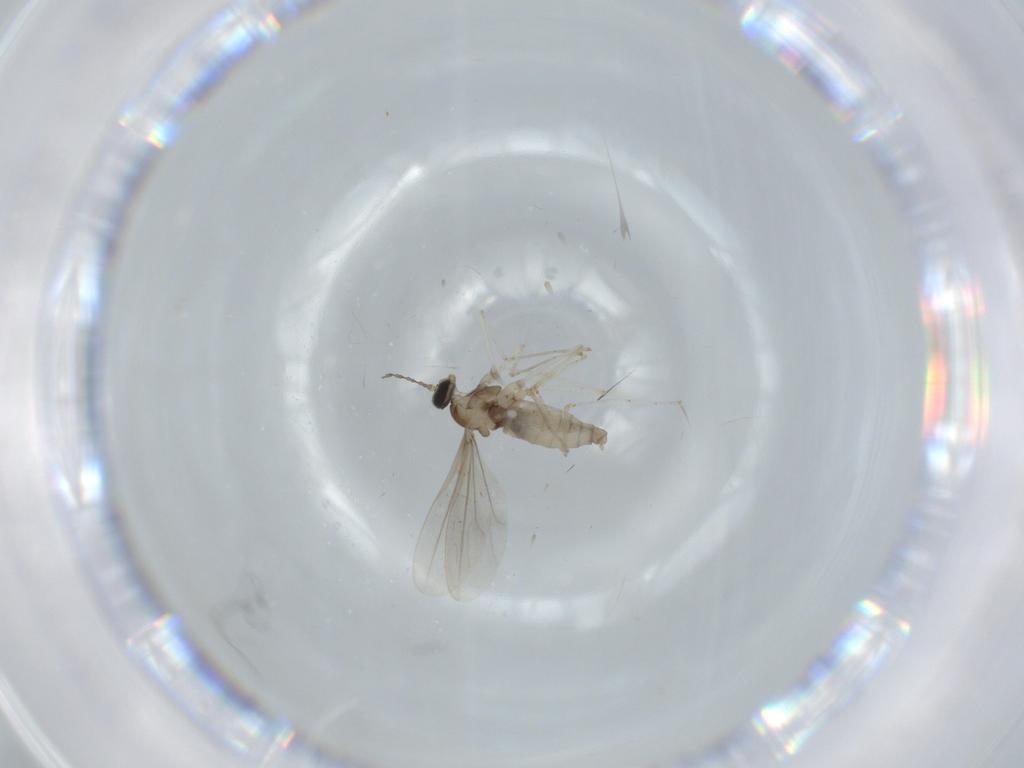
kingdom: Animalia
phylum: Arthropoda
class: Insecta
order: Diptera
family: Cecidomyiidae
